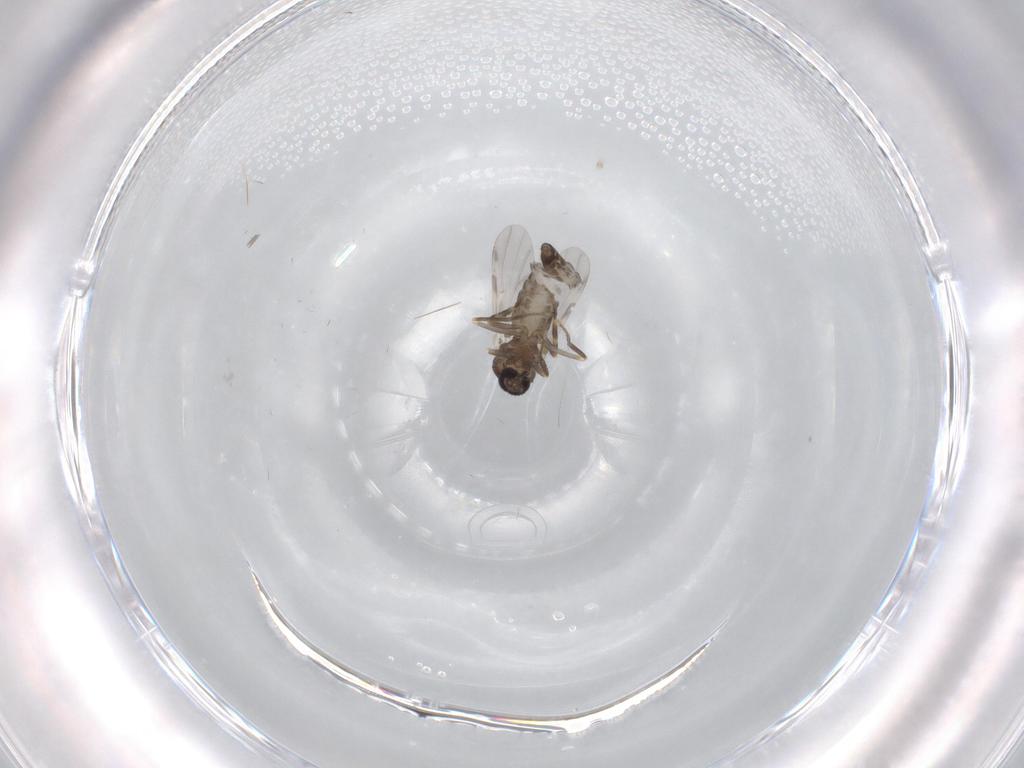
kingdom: Animalia
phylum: Arthropoda
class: Insecta
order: Diptera
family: Ceratopogonidae
